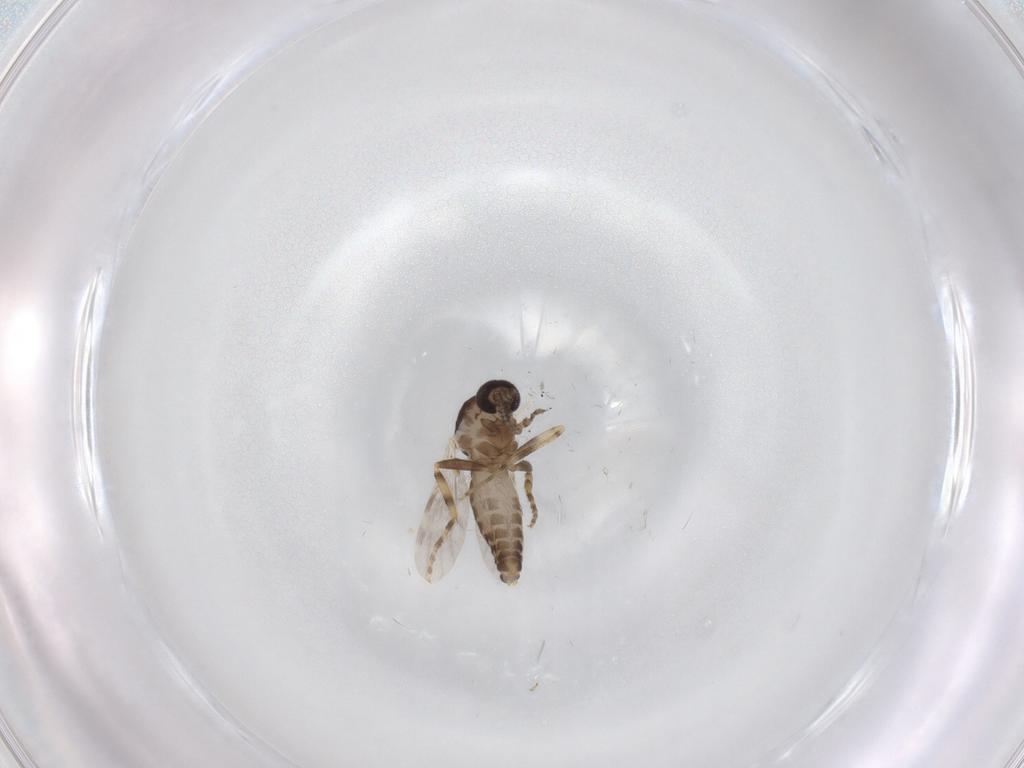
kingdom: Animalia
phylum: Arthropoda
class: Insecta
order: Diptera
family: Ceratopogonidae
